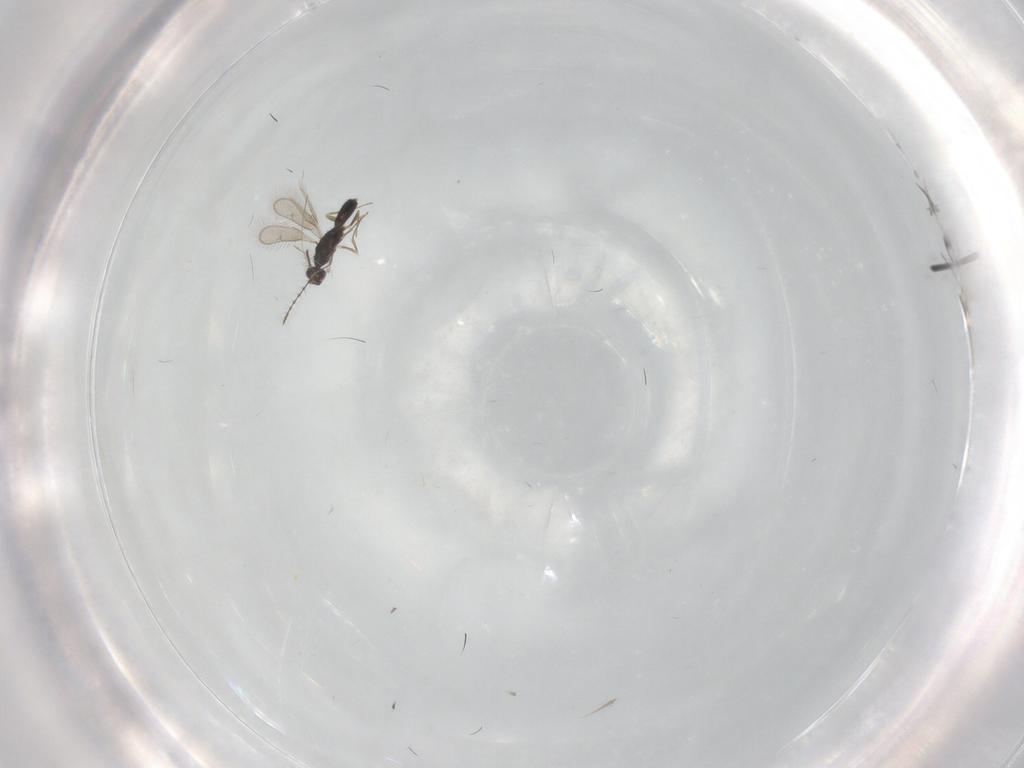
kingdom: Animalia
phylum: Arthropoda
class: Insecta
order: Hymenoptera
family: Pteromalidae
